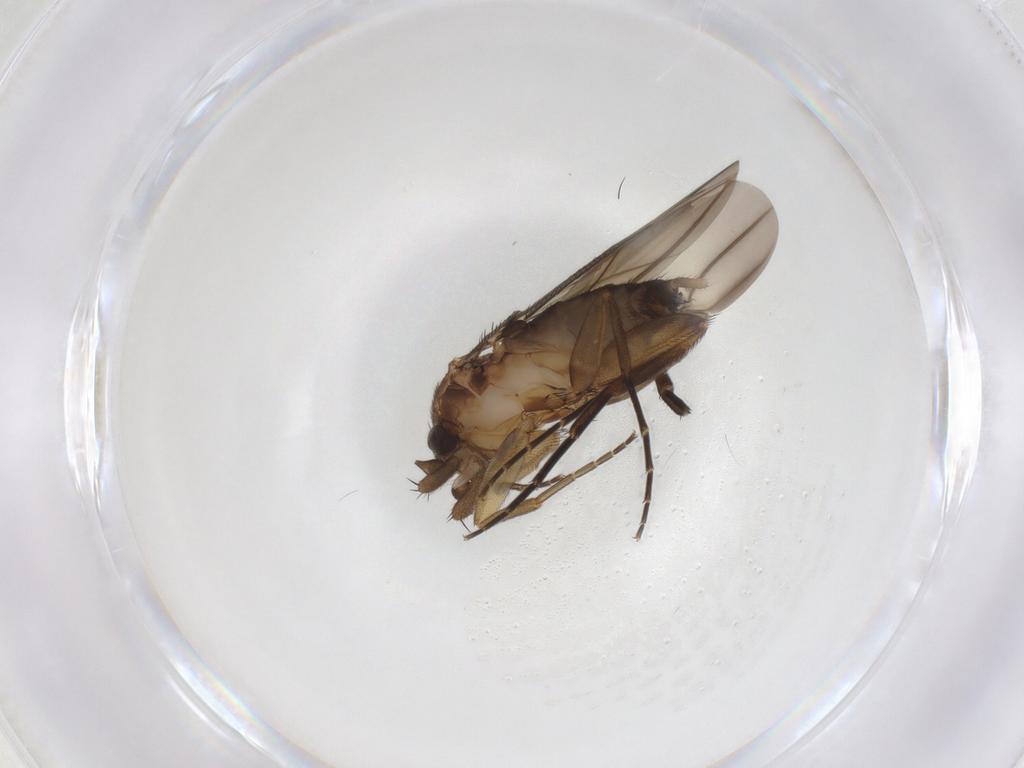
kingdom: Animalia
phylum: Arthropoda
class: Insecta
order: Diptera
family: Phoridae
